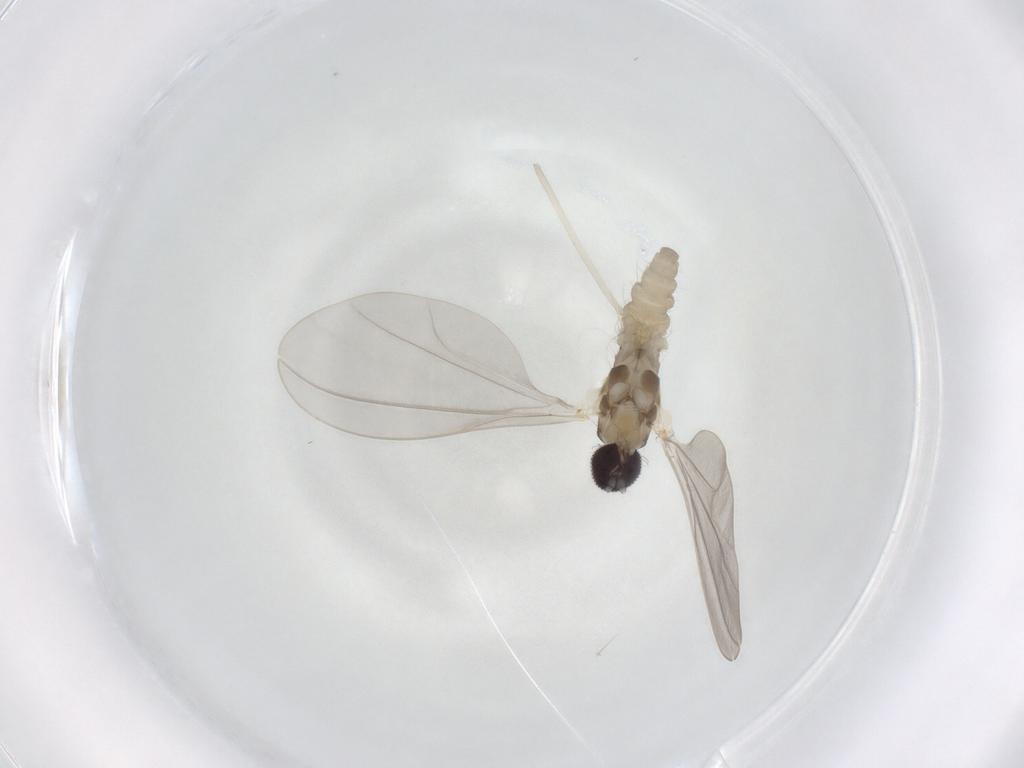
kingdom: Animalia
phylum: Arthropoda
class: Insecta
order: Diptera
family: Cecidomyiidae
